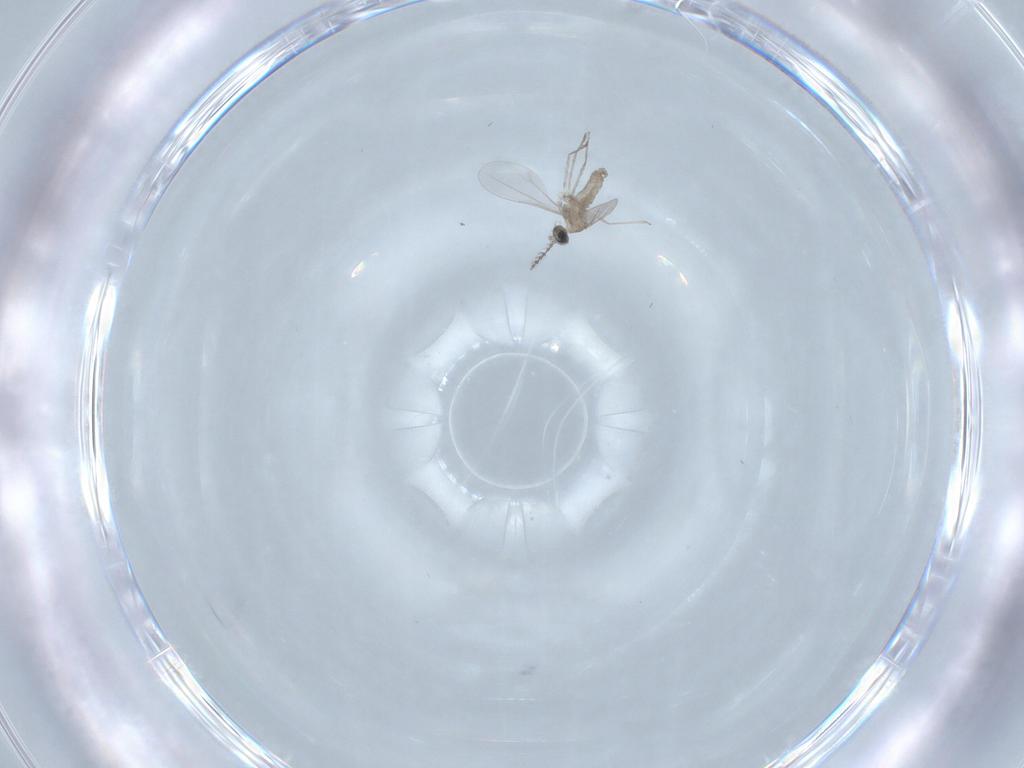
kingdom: Animalia
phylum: Arthropoda
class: Insecta
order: Diptera
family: Cecidomyiidae
